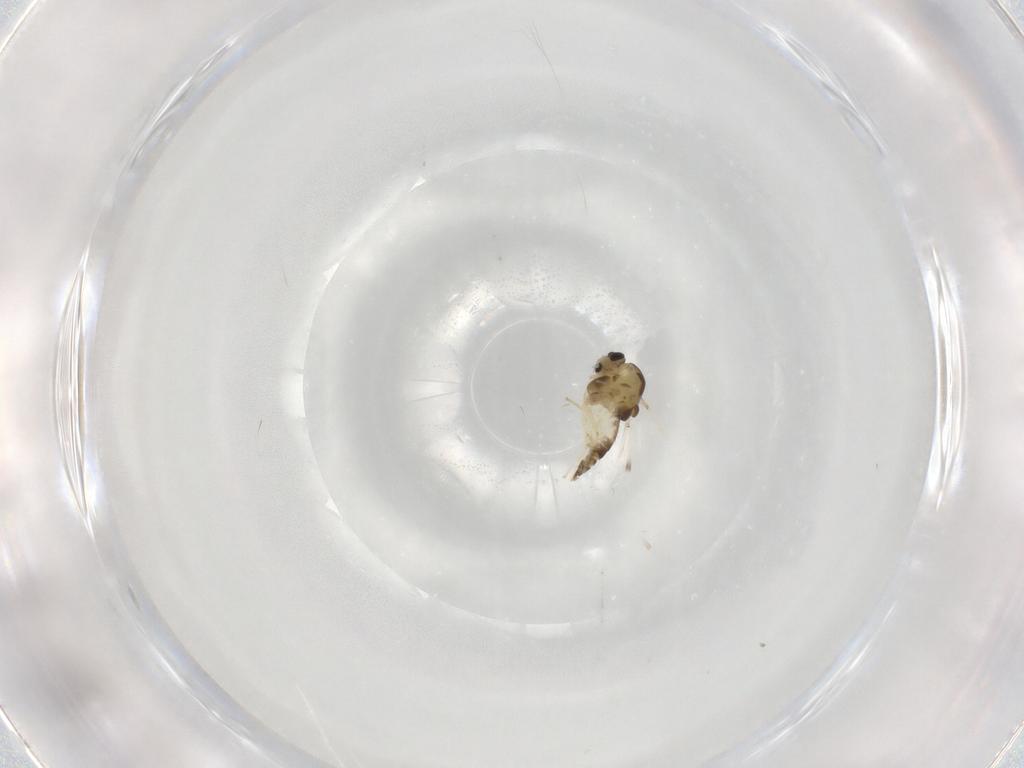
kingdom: Animalia
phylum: Arthropoda
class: Insecta
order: Diptera
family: Chironomidae
